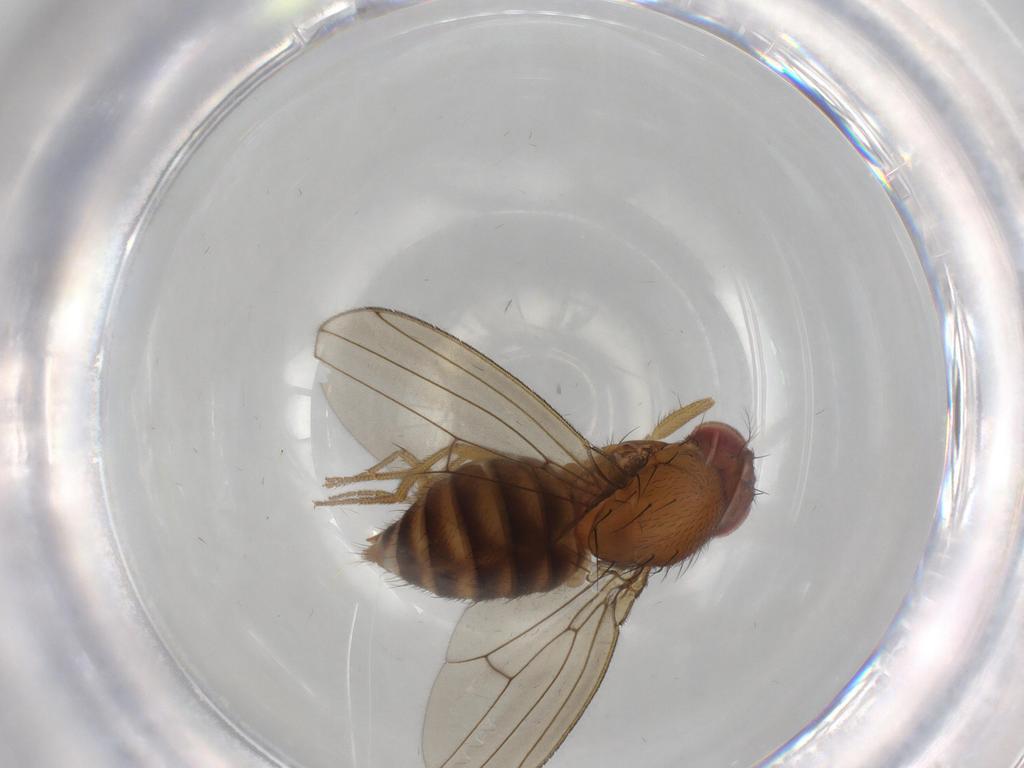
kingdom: Animalia
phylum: Arthropoda
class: Insecta
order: Diptera
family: Drosophilidae
